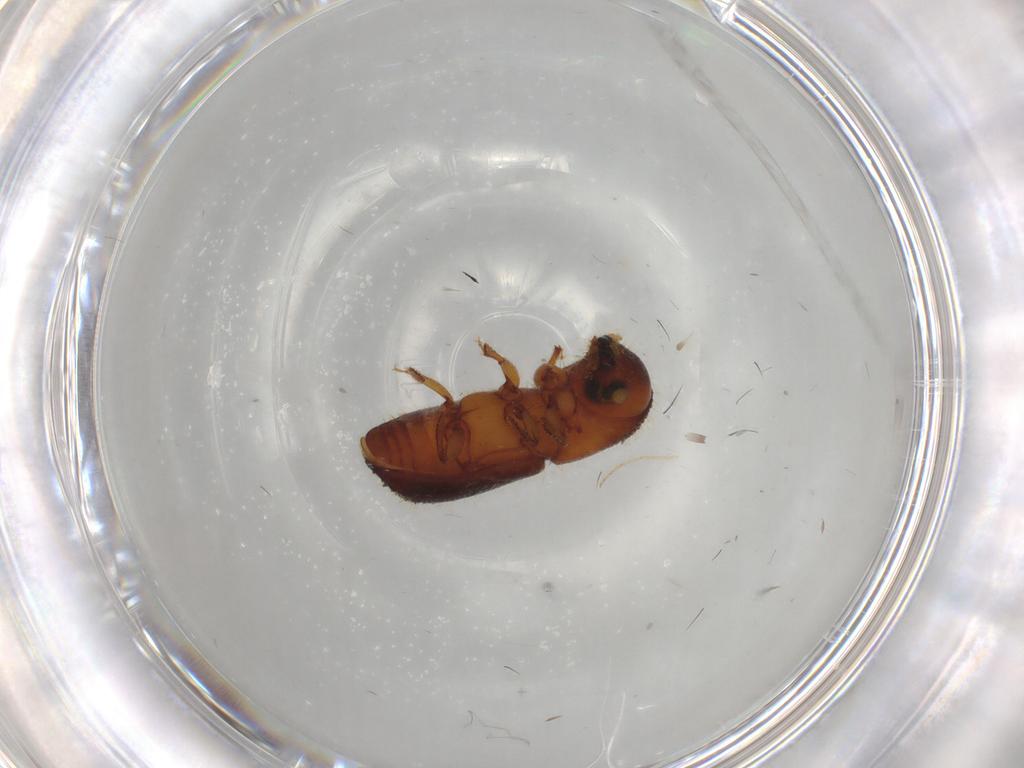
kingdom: Animalia
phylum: Arthropoda
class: Insecta
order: Coleoptera
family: Curculionidae
